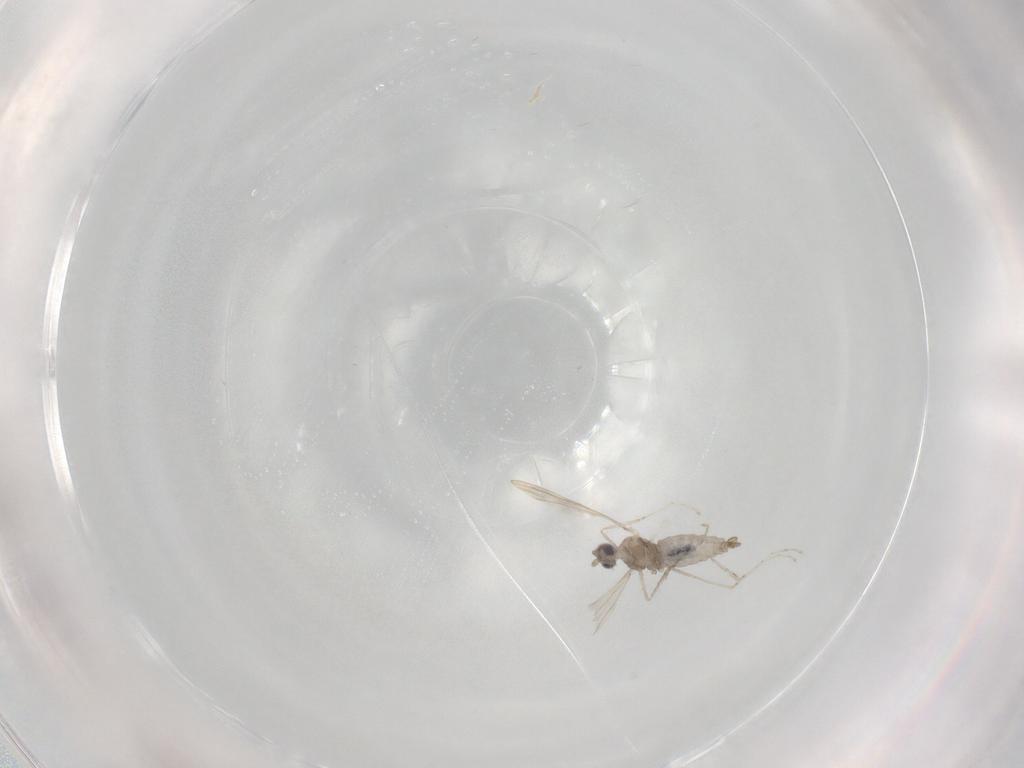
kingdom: Animalia
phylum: Arthropoda
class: Insecta
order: Diptera
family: Cecidomyiidae
